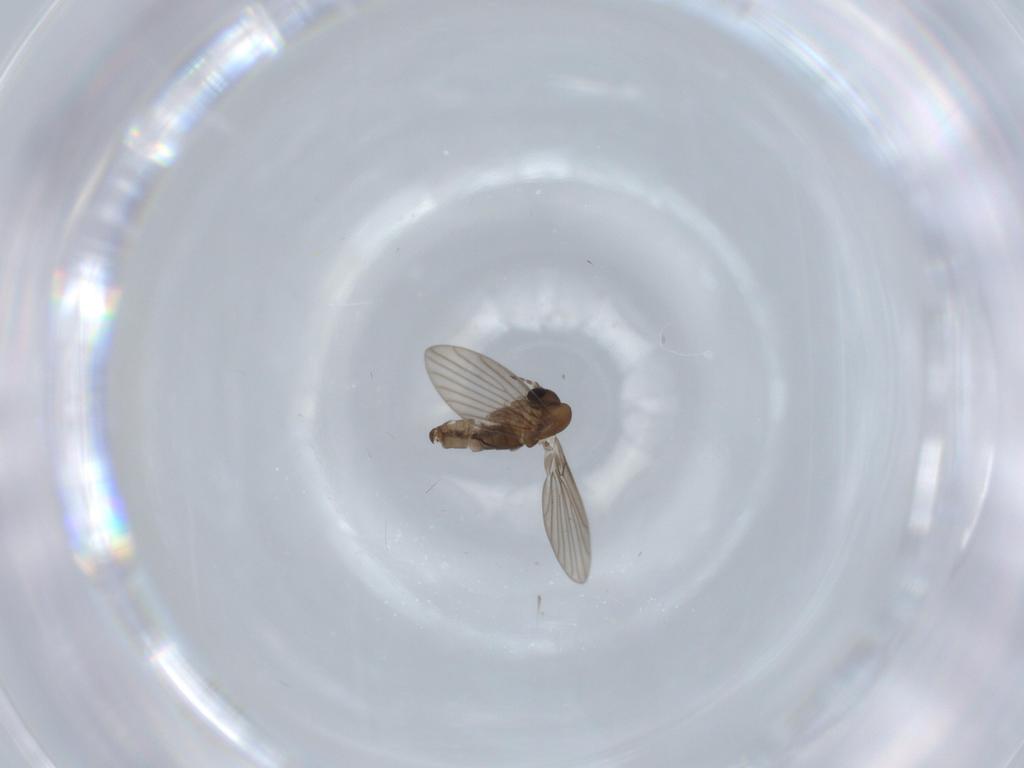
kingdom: Animalia
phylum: Arthropoda
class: Insecta
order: Diptera
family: Psychodidae
